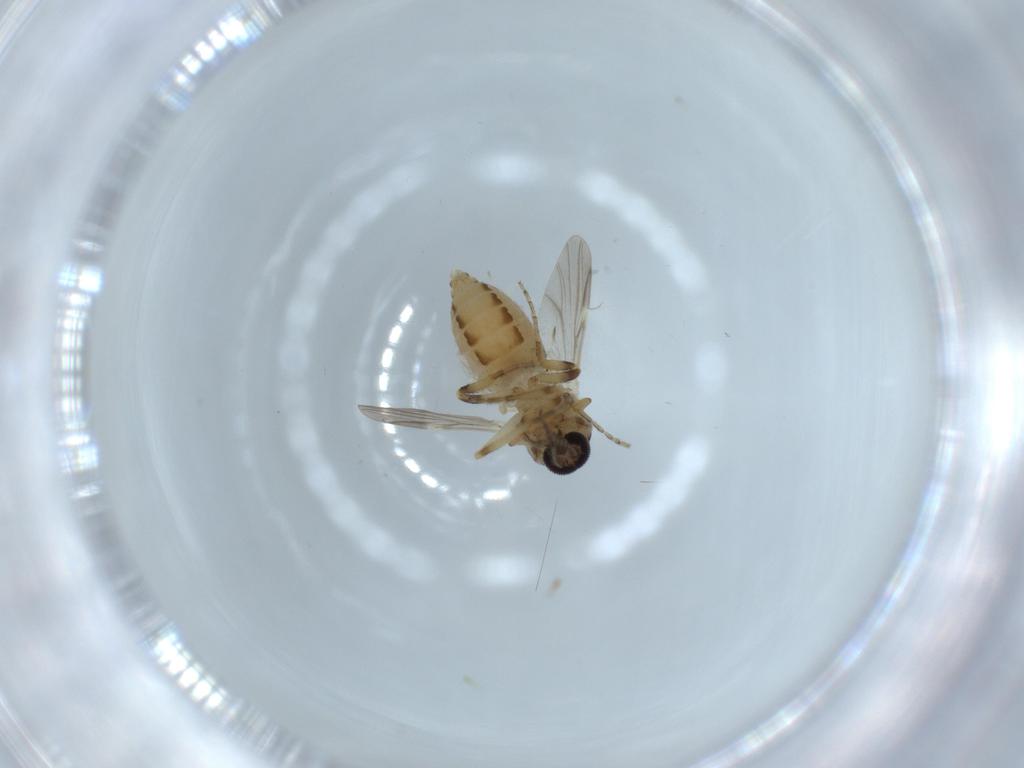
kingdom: Animalia
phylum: Arthropoda
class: Insecta
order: Diptera
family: Ceratopogonidae
